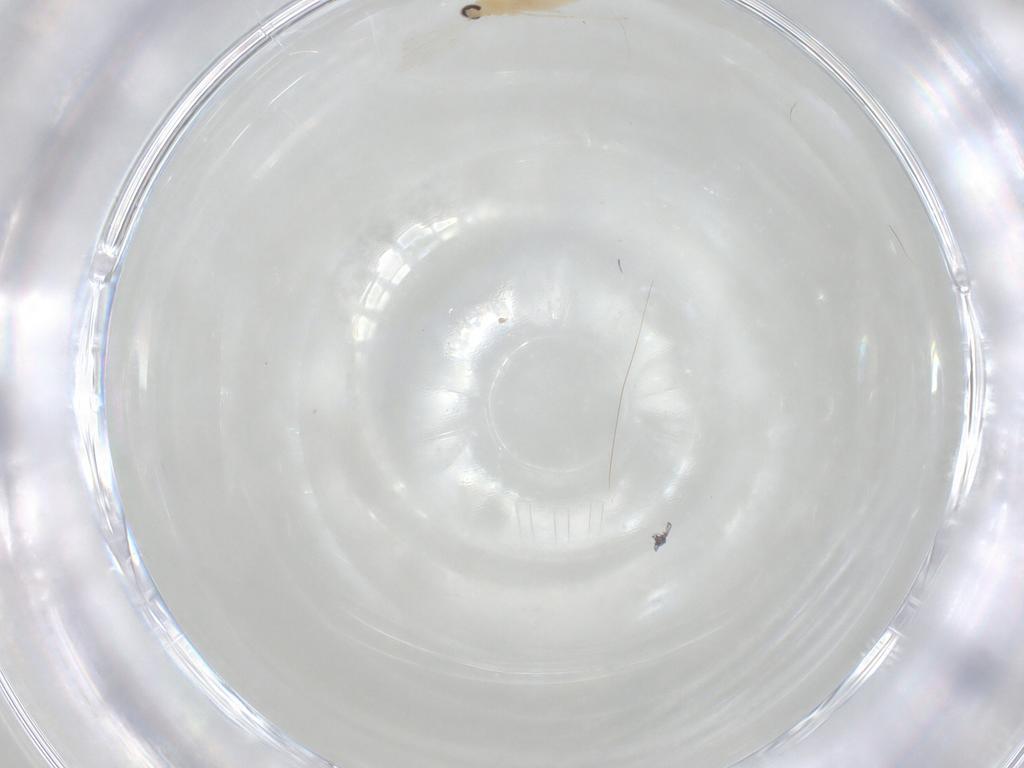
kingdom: Animalia
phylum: Arthropoda
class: Insecta
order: Diptera
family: Cecidomyiidae
